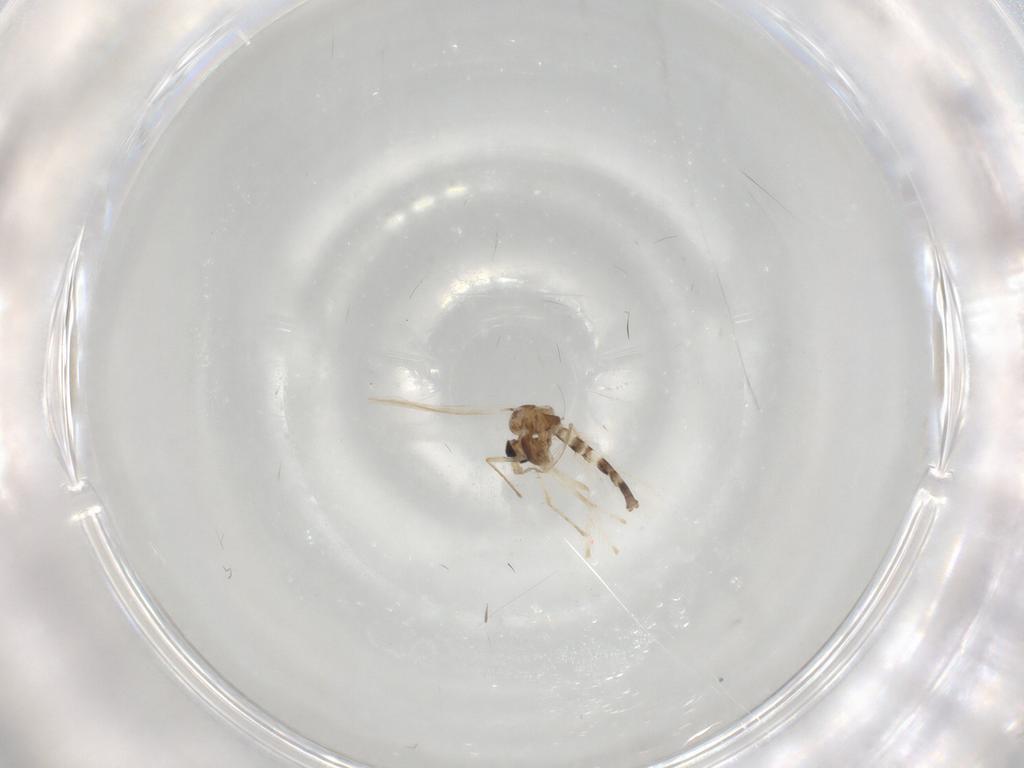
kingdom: Animalia
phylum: Arthropoda
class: Insecta
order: Diptera
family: Chironomidae
